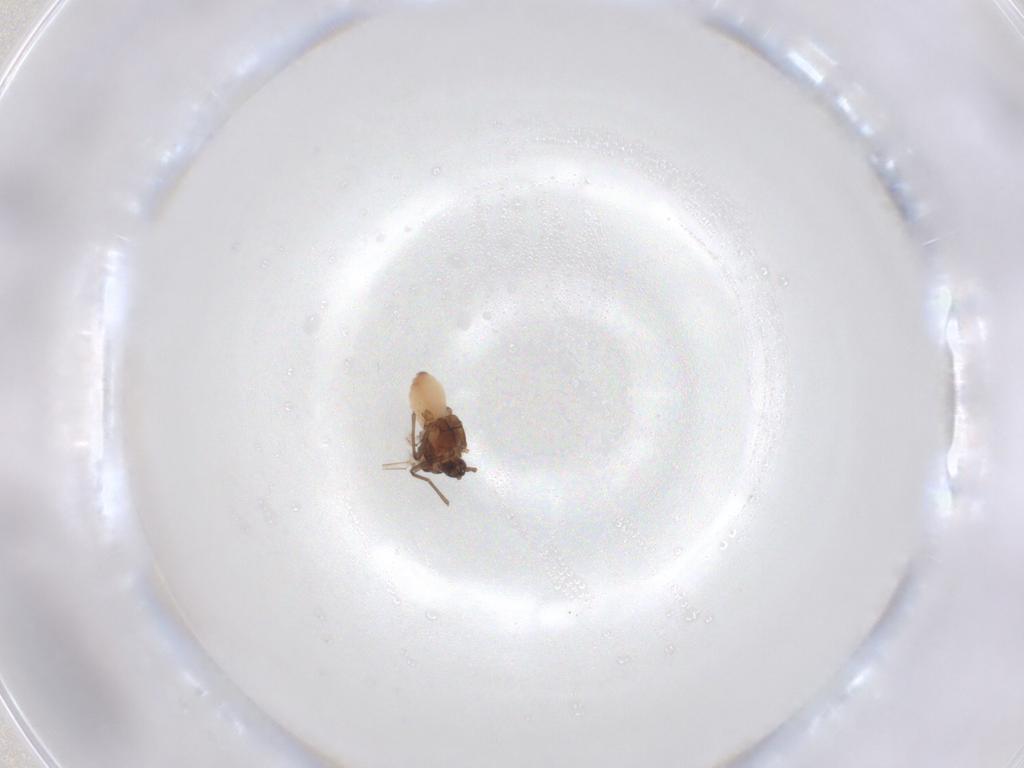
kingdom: Animalia
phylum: Arthropoda
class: Insecta
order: Hemiptera
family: Aphididae
